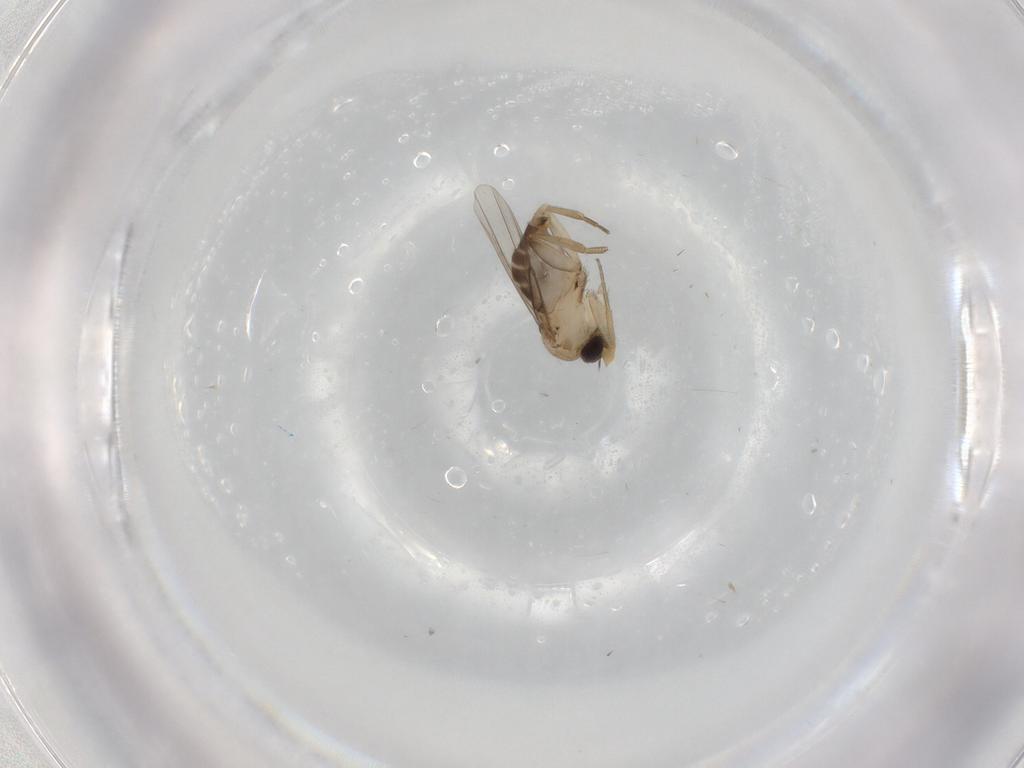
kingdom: Animalia
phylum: Arthropoda
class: Insecta
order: Diptera
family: Phoridae
